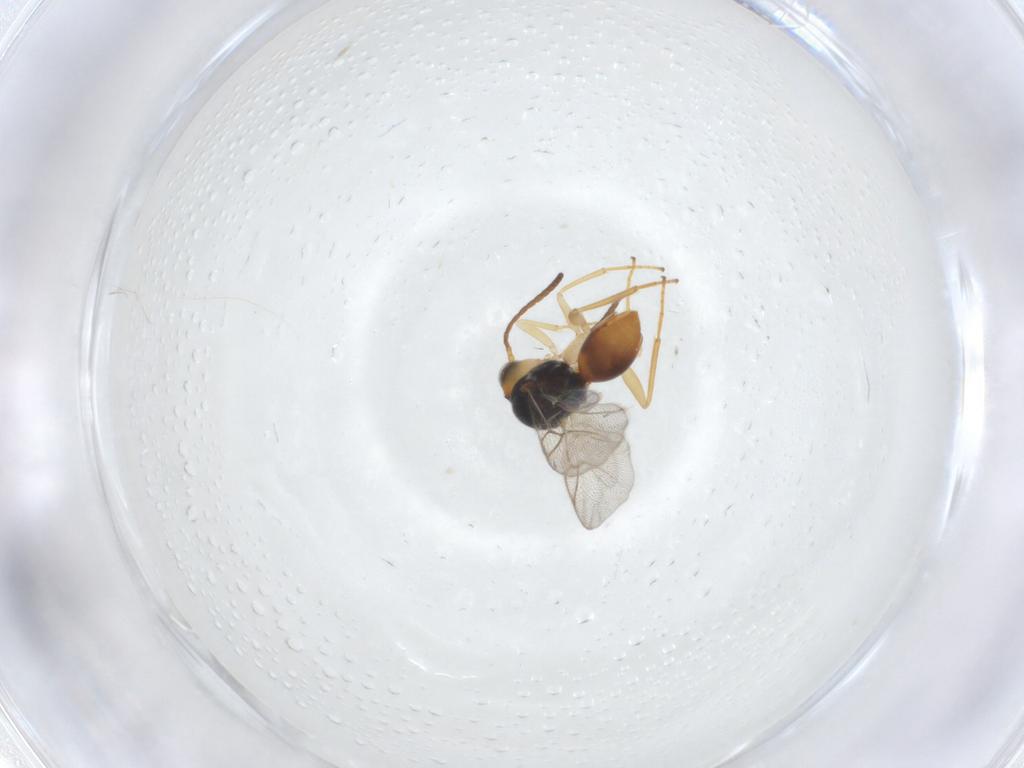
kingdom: Animalia
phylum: Arthropoda
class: Insecta
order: Hymenoptera
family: Cynipidae
